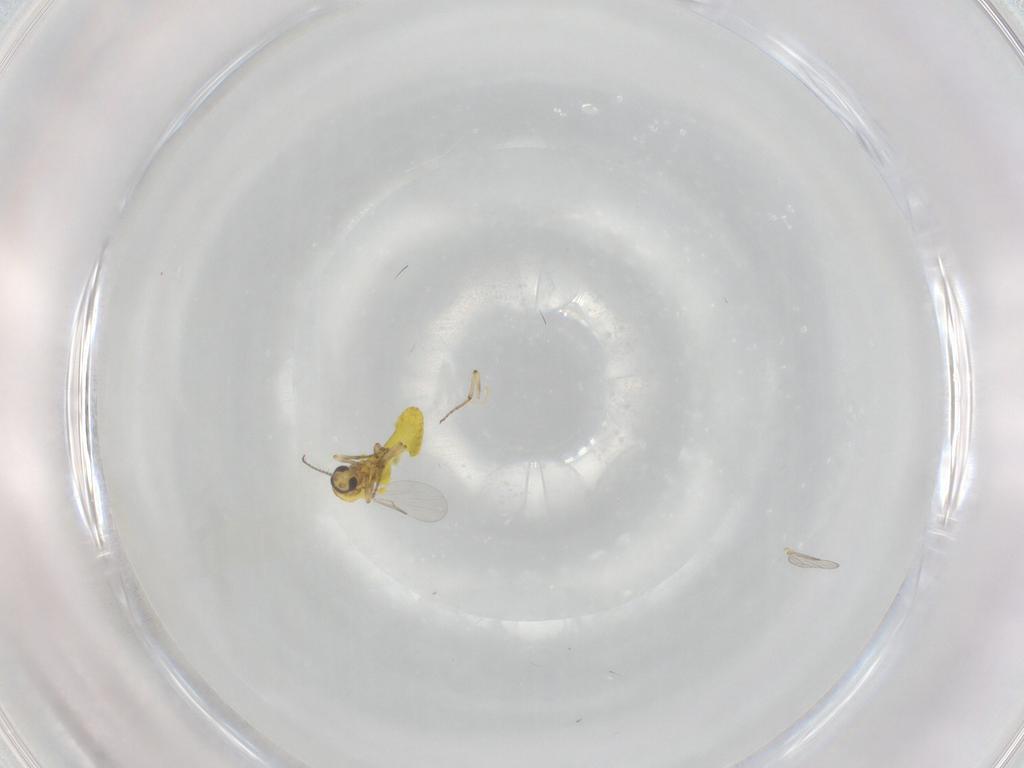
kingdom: Animalia
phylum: Arthropoda
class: Insecta
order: Diptera
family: Ceratopogonidae
